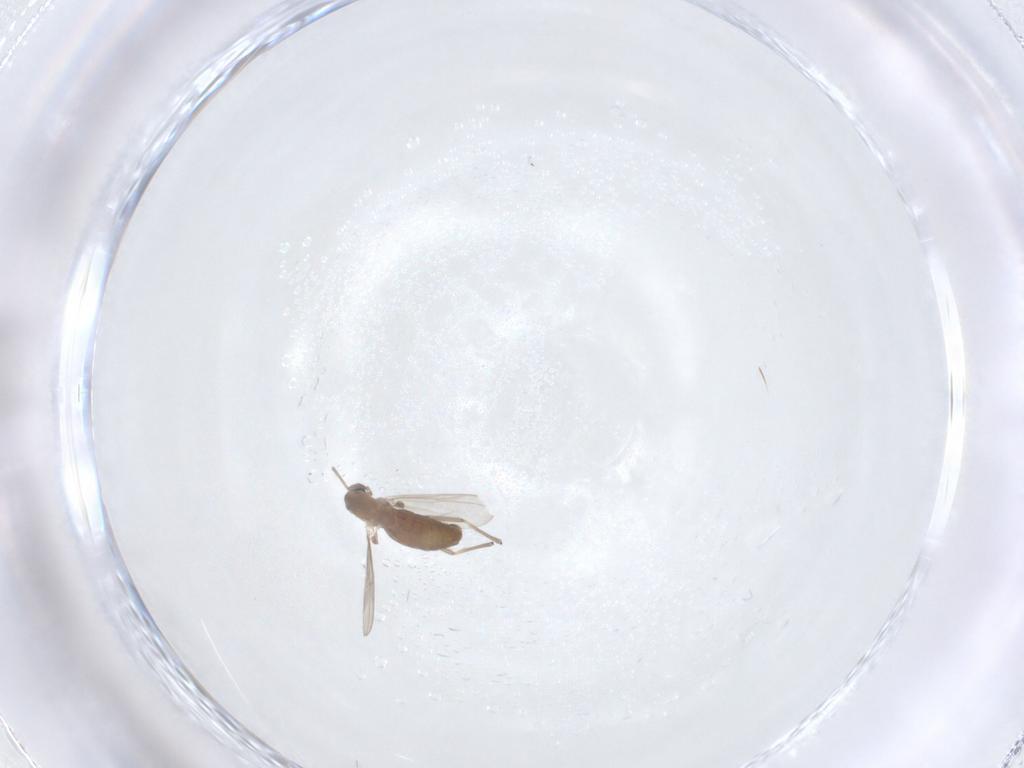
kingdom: Animalia
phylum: Arthropoda
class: Insecta
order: Diptera
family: Chironomidae
